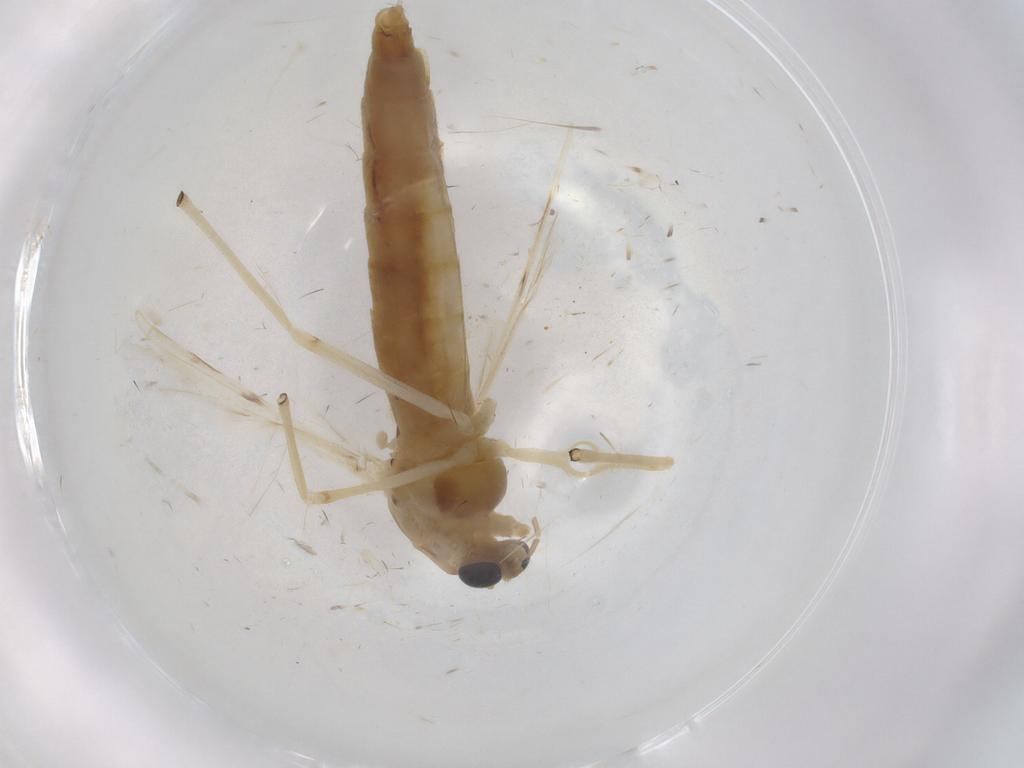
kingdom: Animalia
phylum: Arthropoda
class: Insecta
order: Diptera
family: Chironomidae
